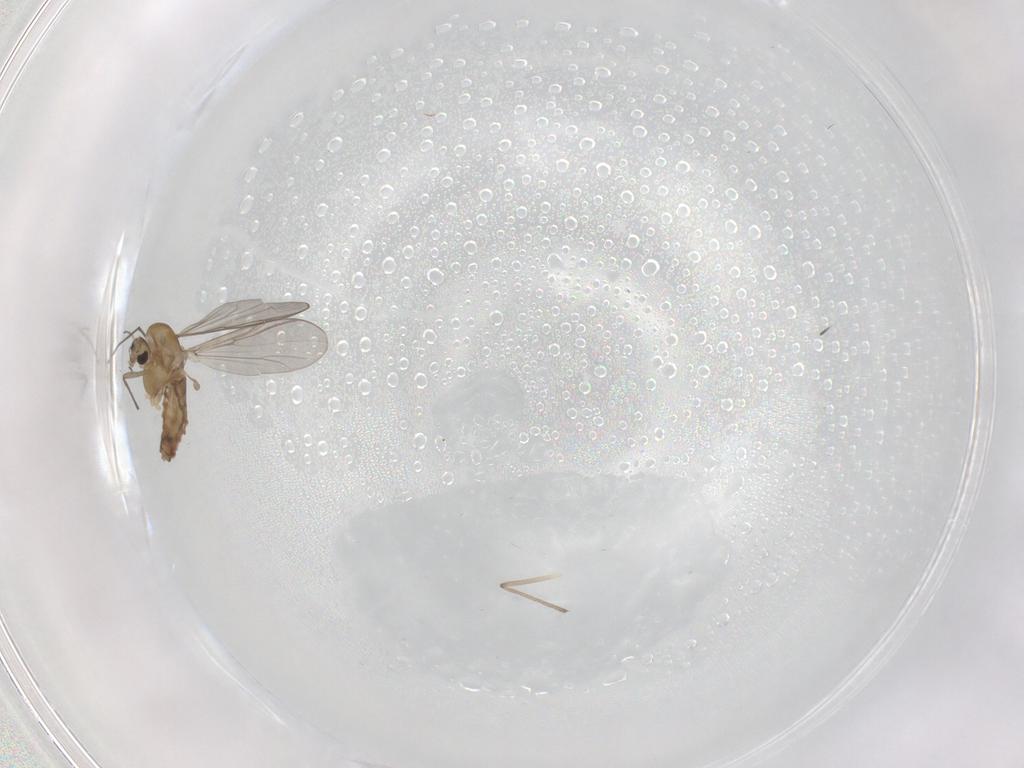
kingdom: Animalia
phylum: Arthropoda
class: Insecta
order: Diptera
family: Chironomidae
